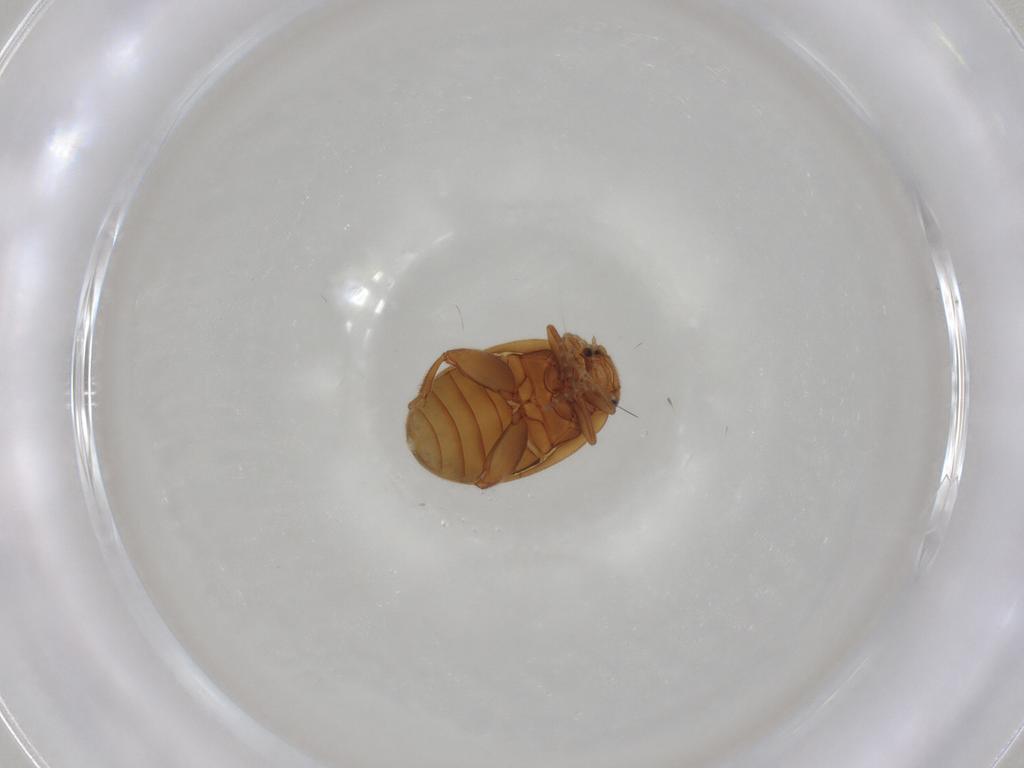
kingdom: Animalia
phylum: Arthropoda
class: Insecta
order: Coleoptera
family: Scirtidae
